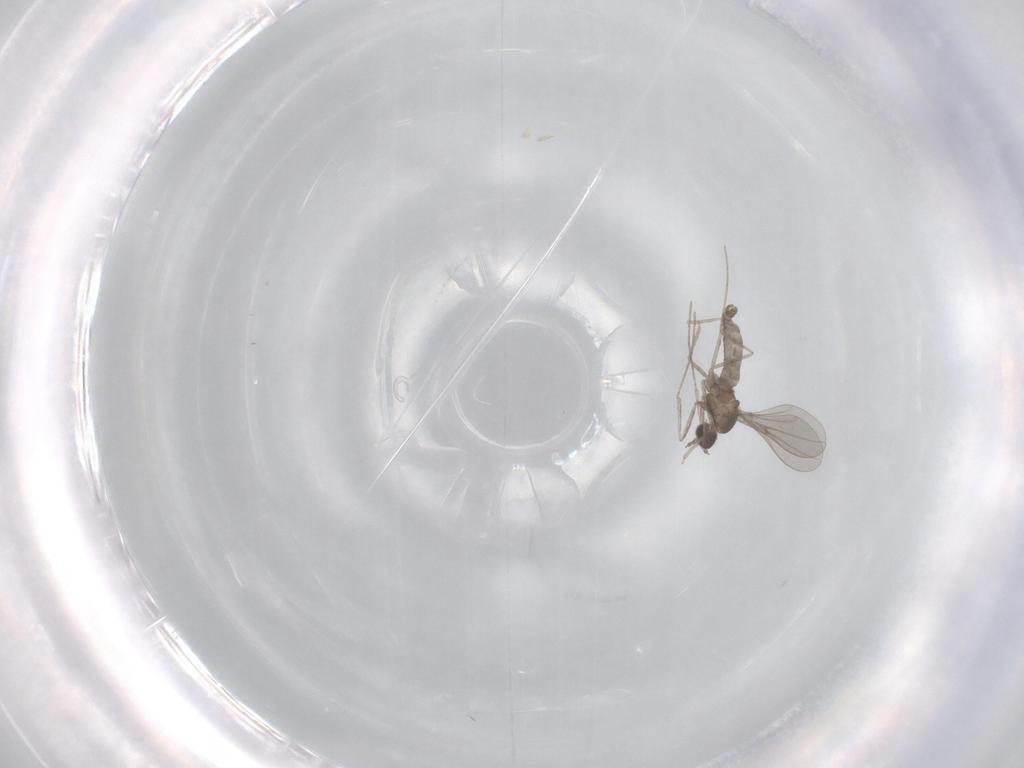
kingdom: Animalia
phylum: Arthropoda
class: Insecta
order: Diptera
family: Cecidomyiidae
